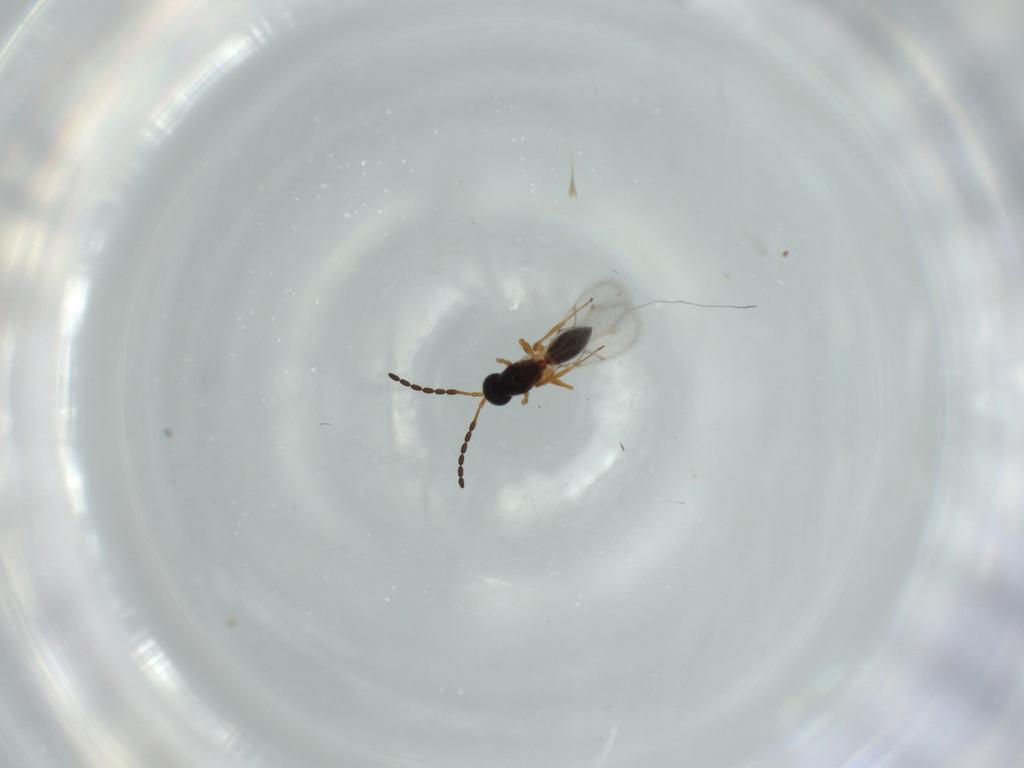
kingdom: Animalia
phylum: Arthropoda
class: Insecta
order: Hymenoptera
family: Figitidae
